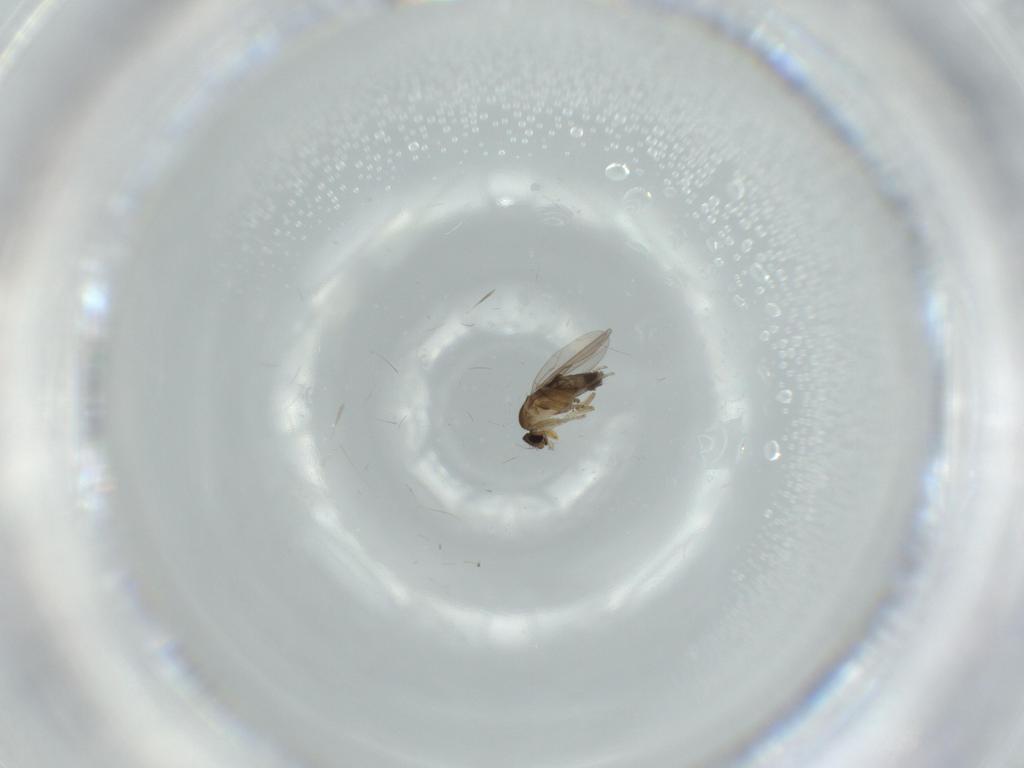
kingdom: Animalia
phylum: Arthropoda
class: Insecta
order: Diptera
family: Phoridae
